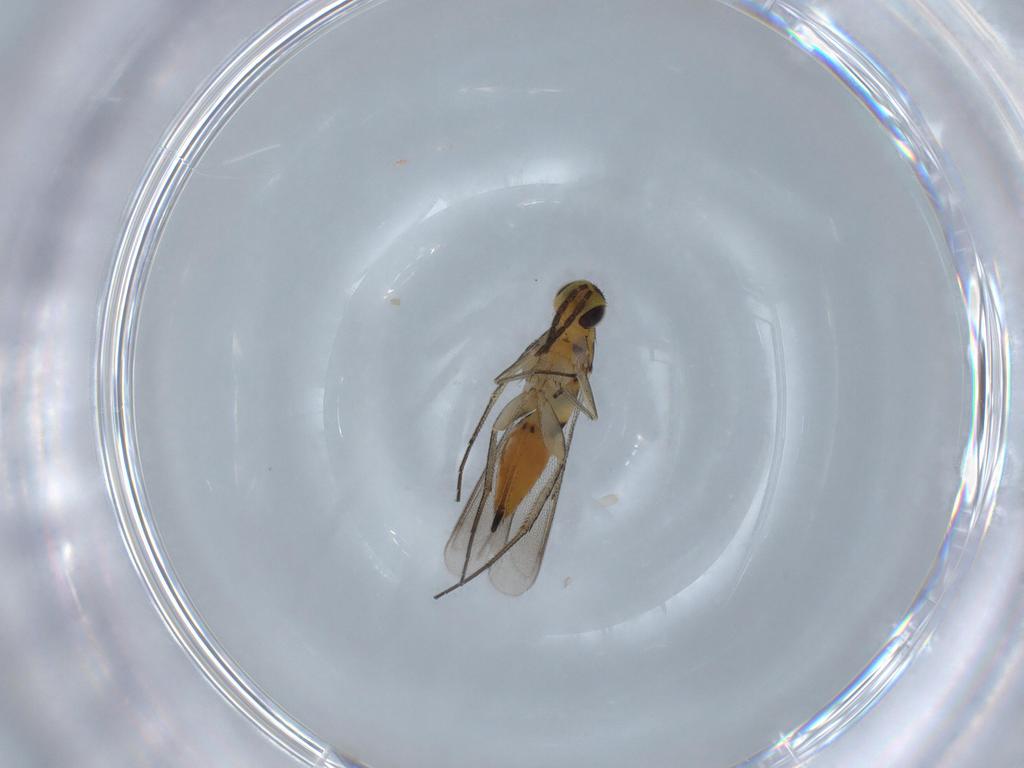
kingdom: Animalia
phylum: Arthropoda
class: Insecta
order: Hymenoptera
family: Eulophidae
